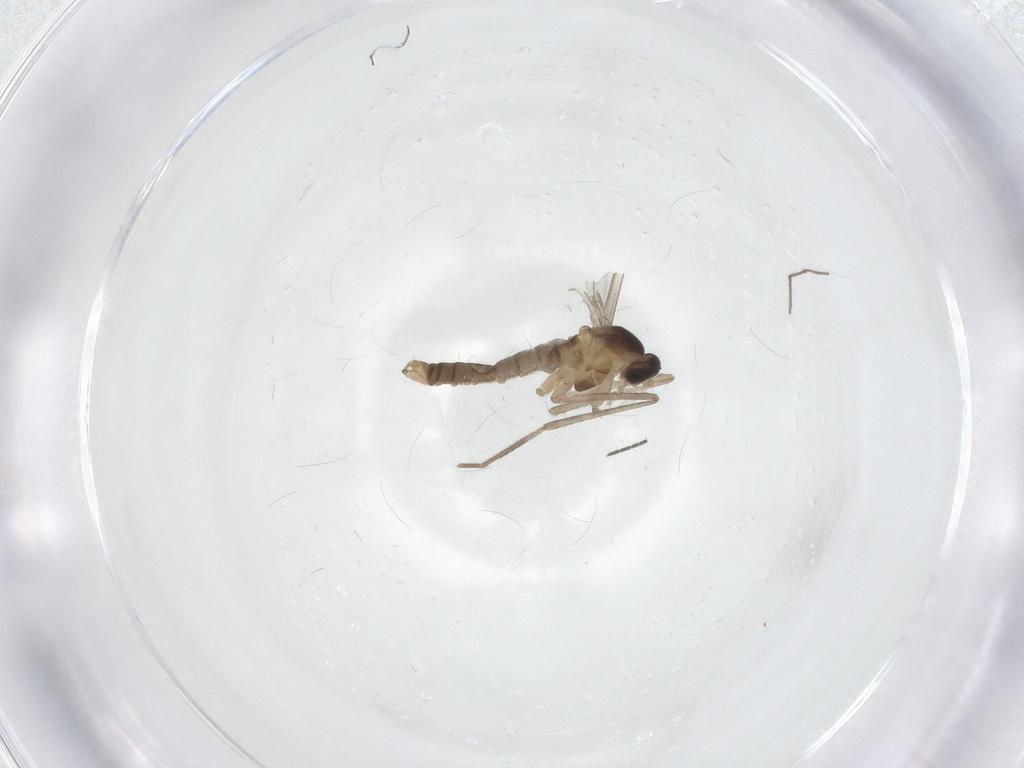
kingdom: Animalia
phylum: Arthropoda
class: Insecta
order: Diptera
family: Cecidomyiidae
